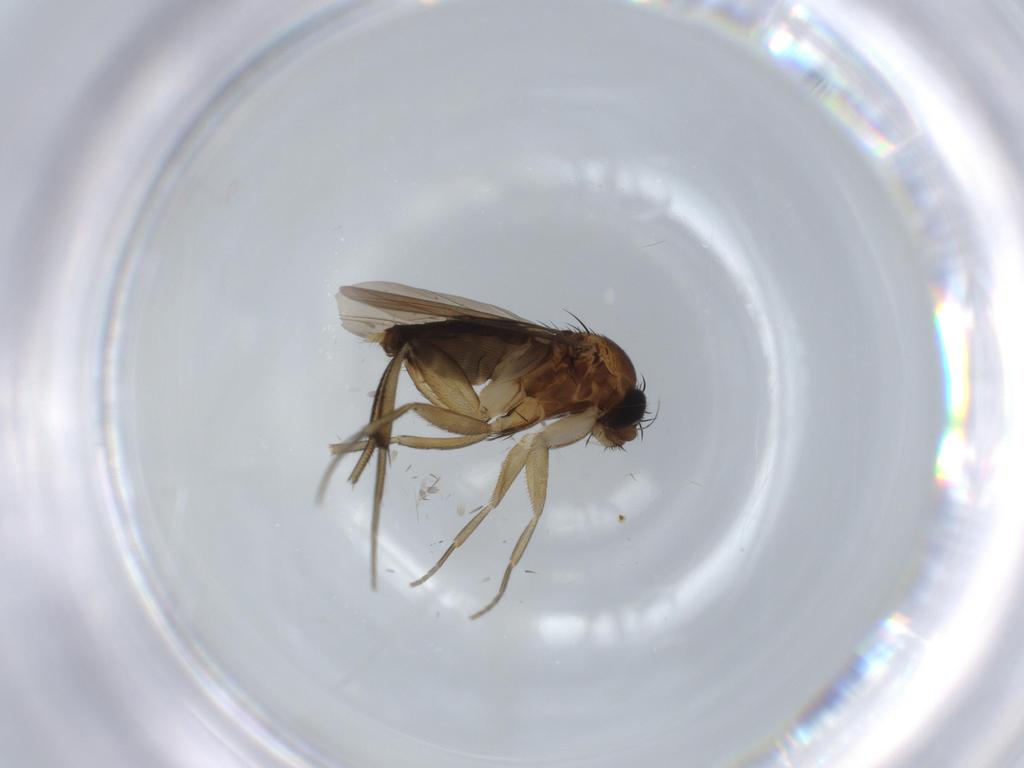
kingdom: Animalia
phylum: Arthropoda
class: Insecta
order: Diptera
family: Phoridae
